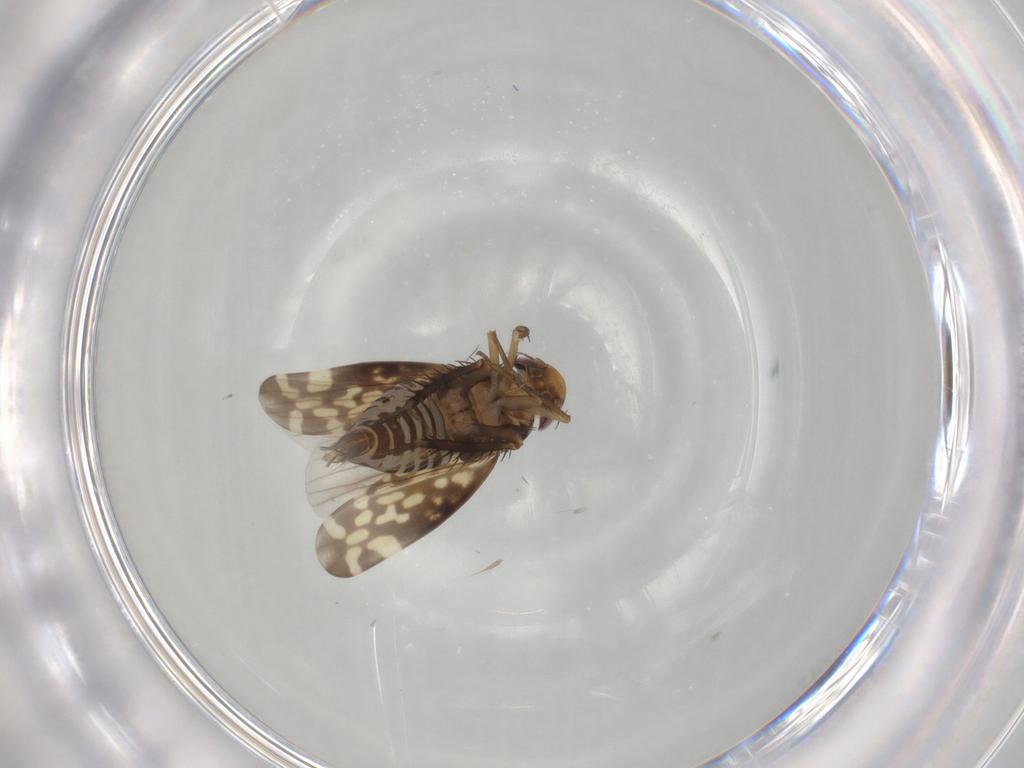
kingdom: Animalia
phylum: Arthropoda
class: Insecta
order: Hemiptera
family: Cicadellidae
